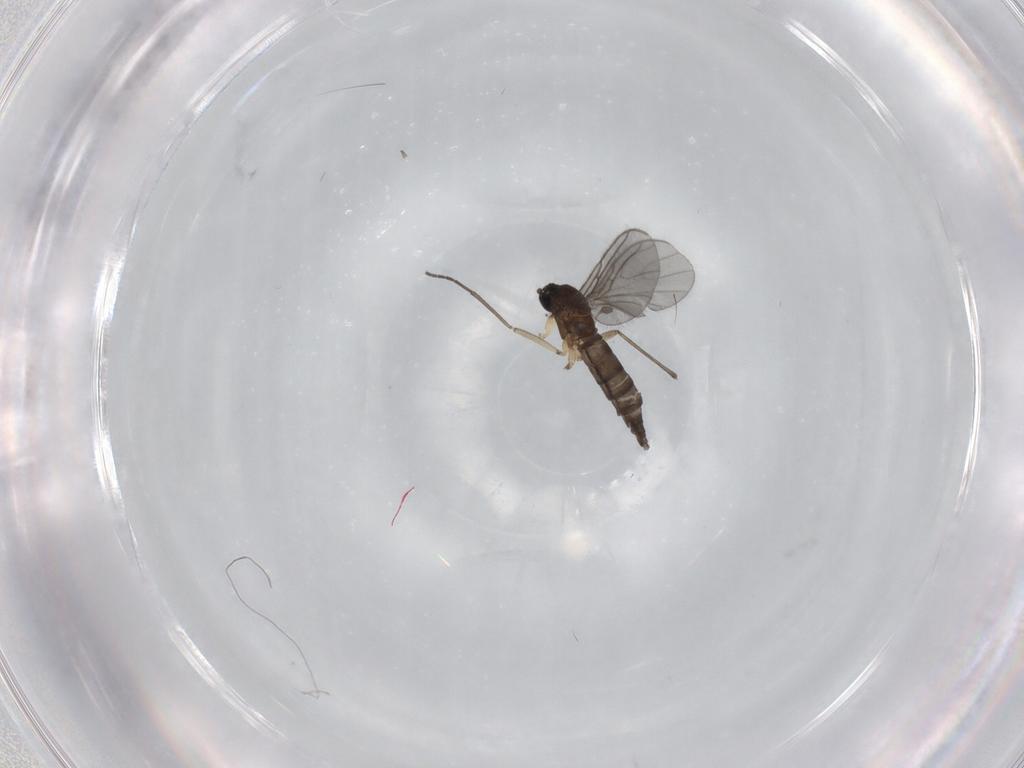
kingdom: Animalia
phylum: Arthropoda
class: Insecta
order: Diptera
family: Sciaridae
